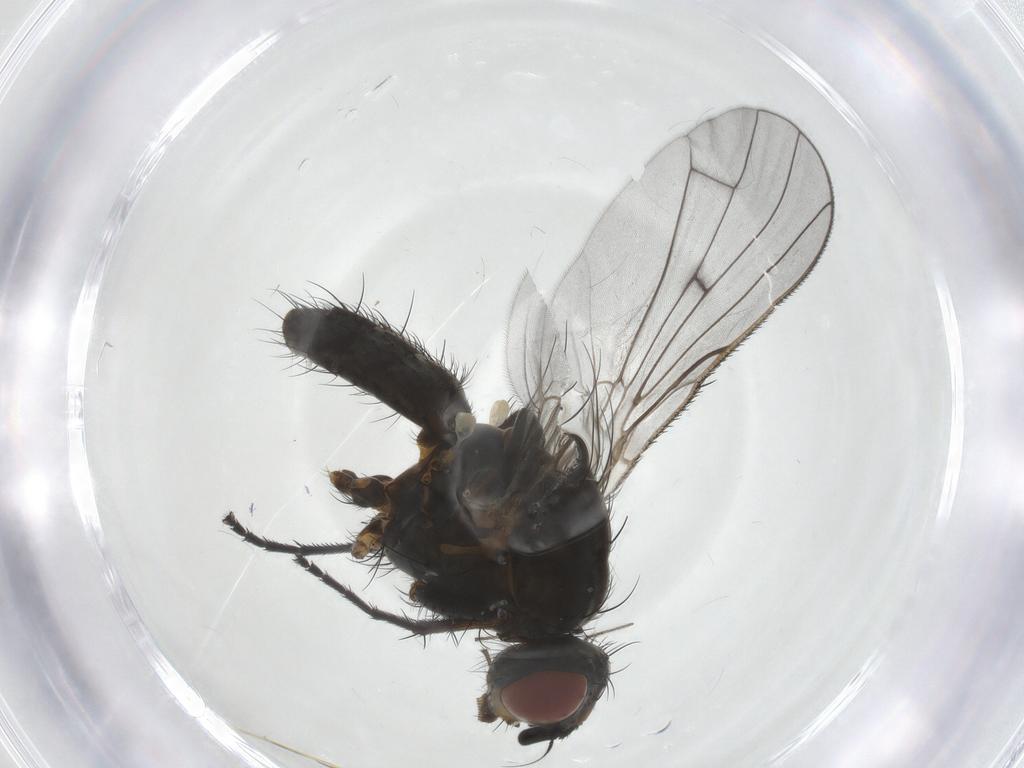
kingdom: Animalia
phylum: Arthropoda
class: Insecta
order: Diptera
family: Anthomyiidae
